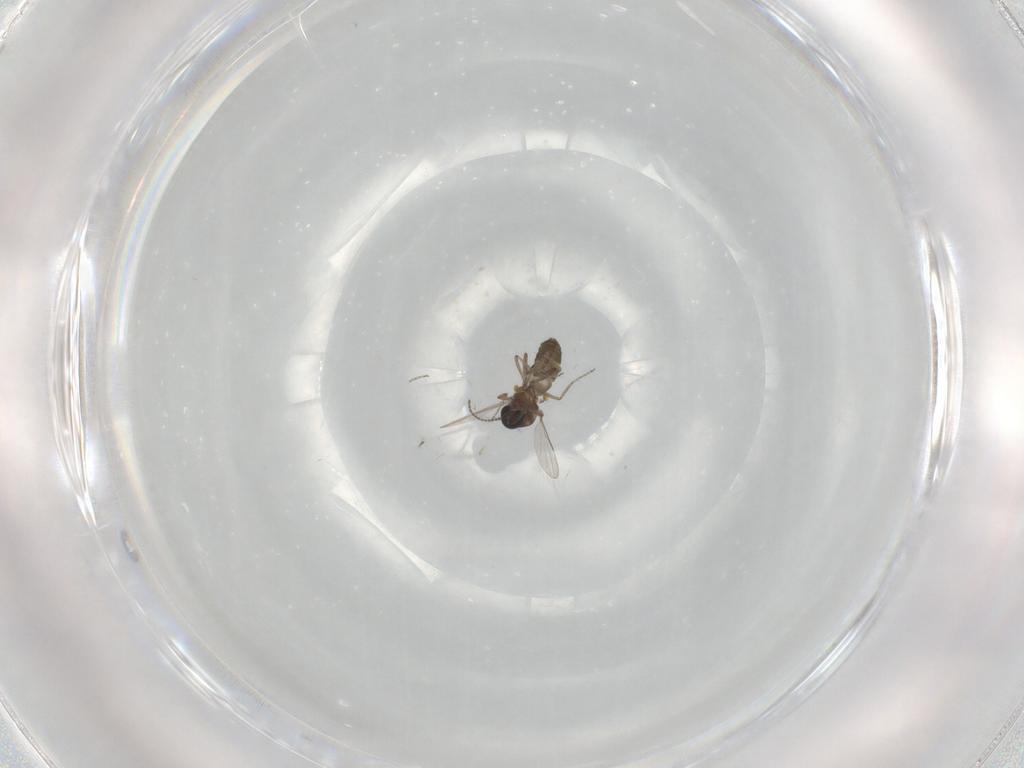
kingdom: Animalia
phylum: Arthropoda
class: Insecta
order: Diptera
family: Ceratopogonidae
